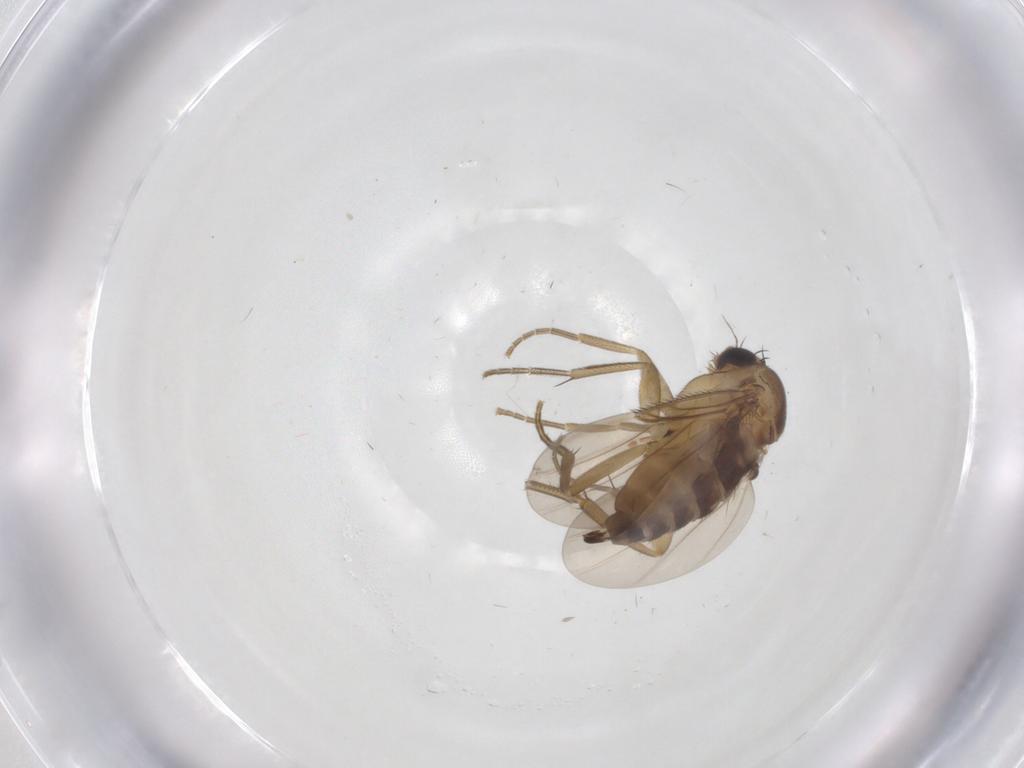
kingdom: Animalia
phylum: Arthropoda
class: Insecta
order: Diptera
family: Phoridae
